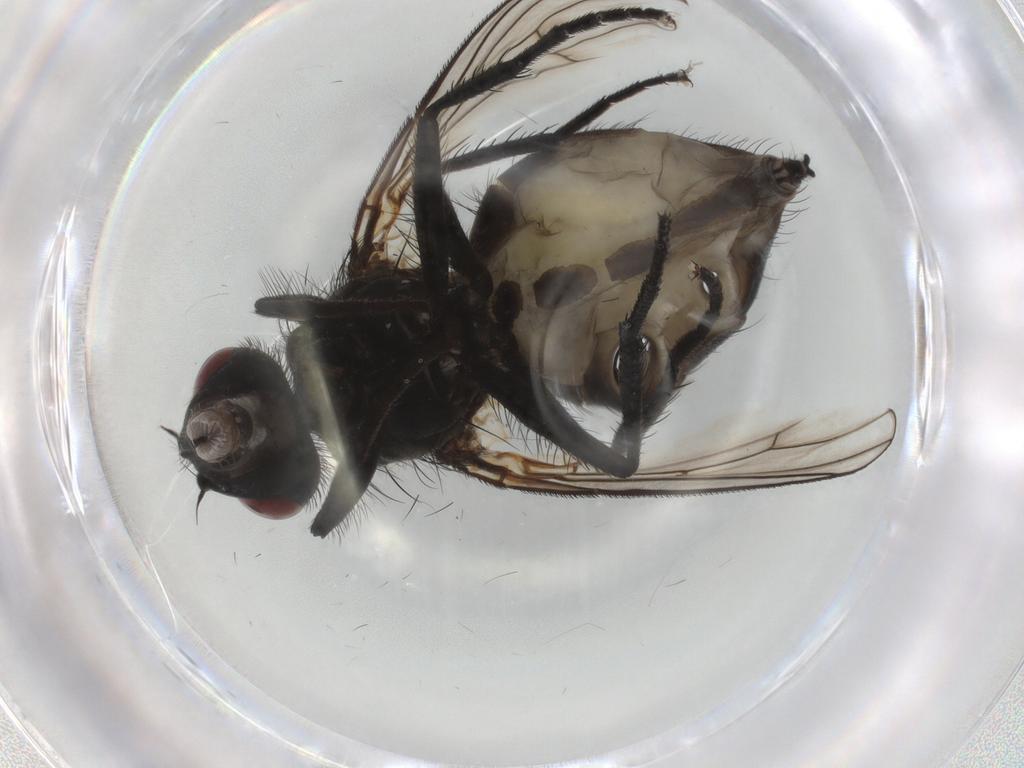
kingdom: Animalia
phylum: Arthropoda
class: Insecta
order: Diptera
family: Muscidae
